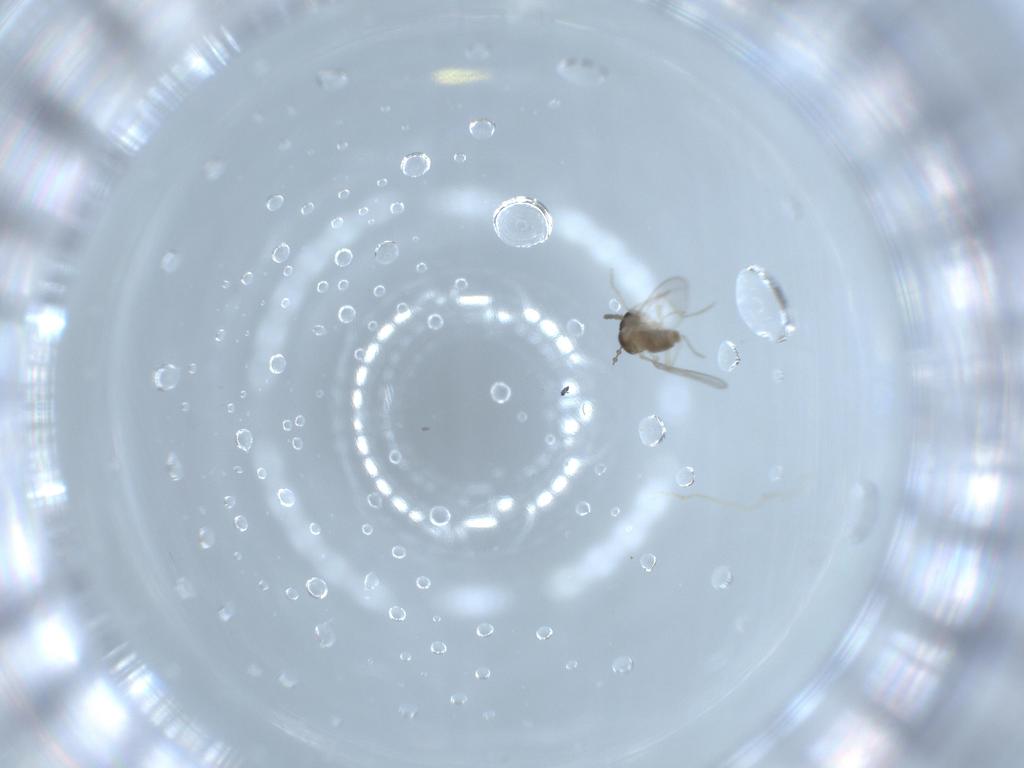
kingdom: Animalia
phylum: Arthropoda
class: Insecta
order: Diptera
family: Cecidomyiidae
